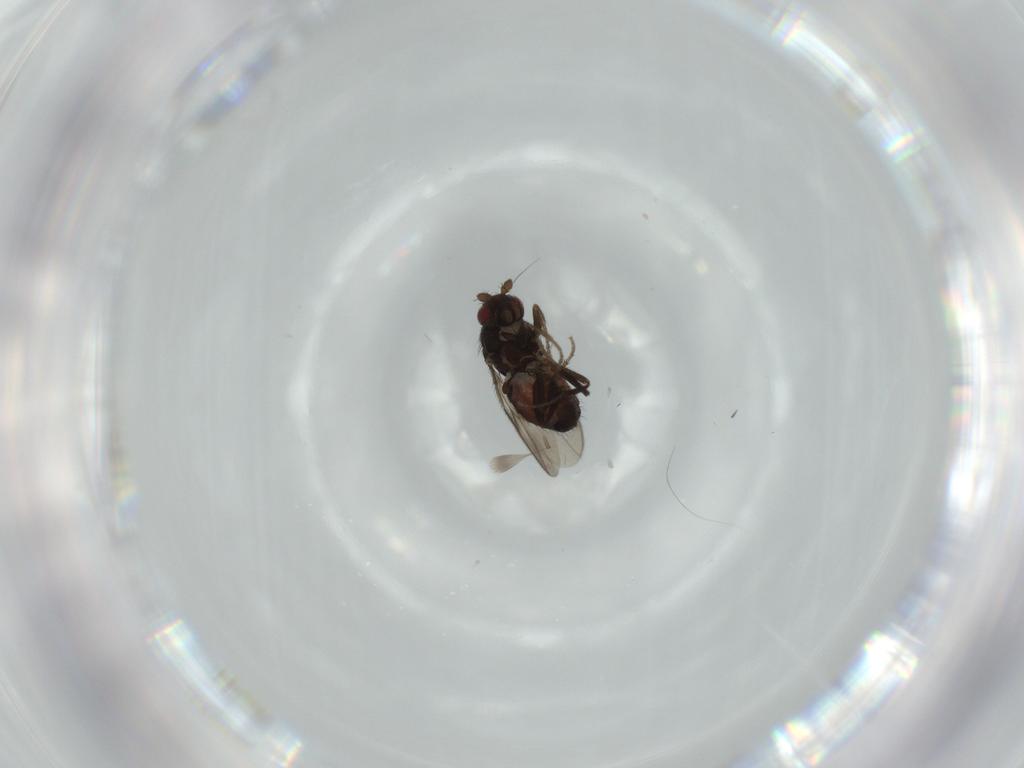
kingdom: Animalia
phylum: Arthropoda
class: Insecta
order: Diptera
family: Sphaeroceridae
